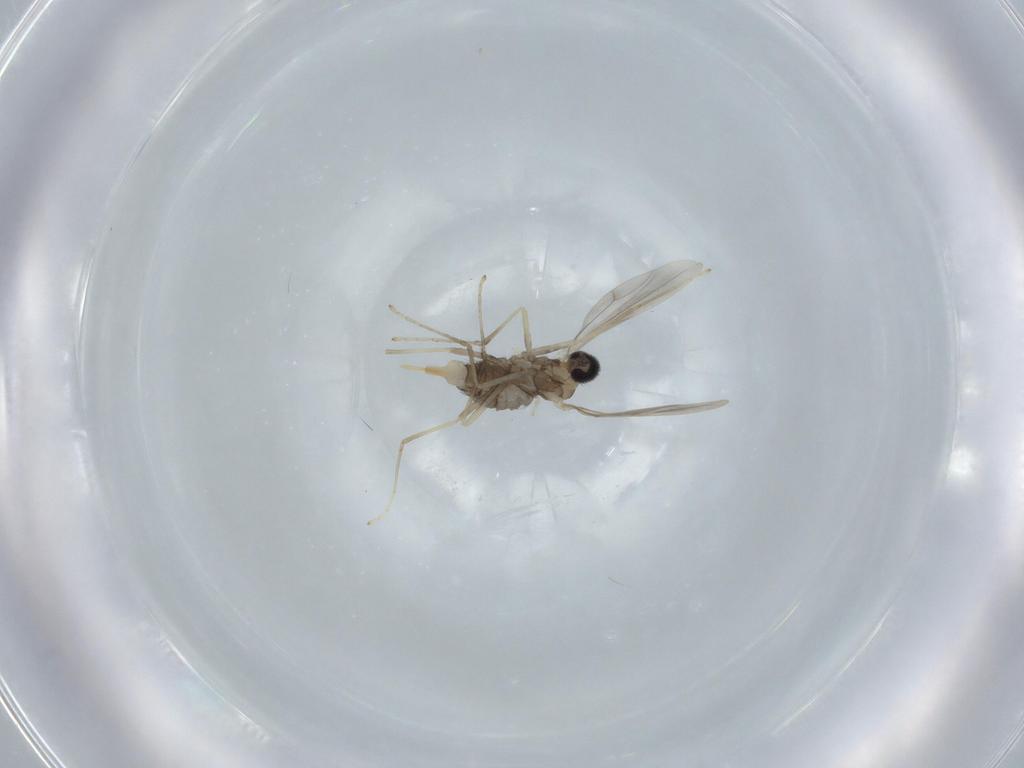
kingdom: Animalia
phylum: Arthropoda
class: Insecta
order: Diptera
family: Cecidomyiidae
